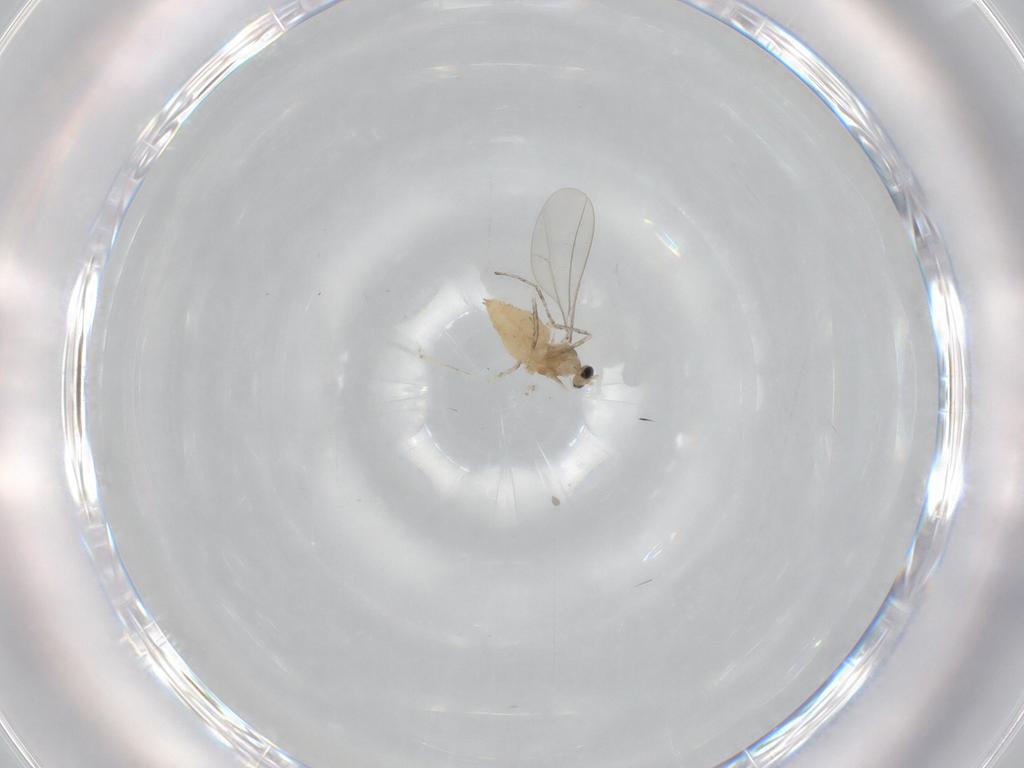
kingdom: Animalia
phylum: Arthropoda
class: Insecta
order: Diptera
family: Cecidomyiidae
